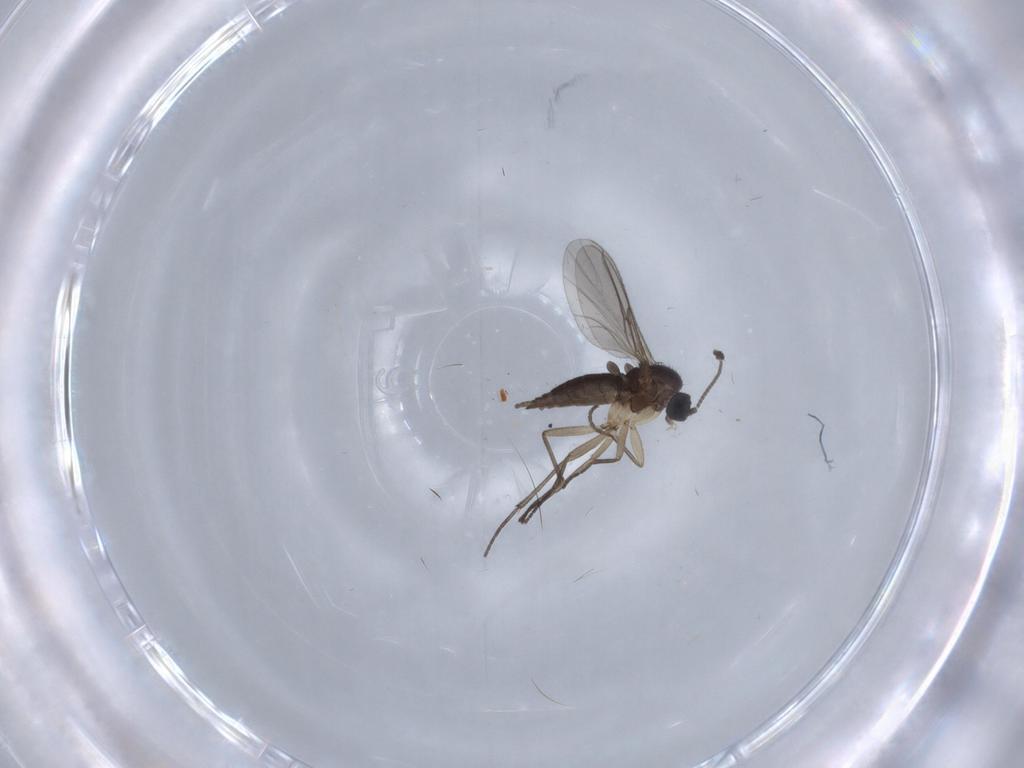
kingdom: Animalia
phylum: Arthropoda
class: Insecta
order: Diptera
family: Sciaridae
